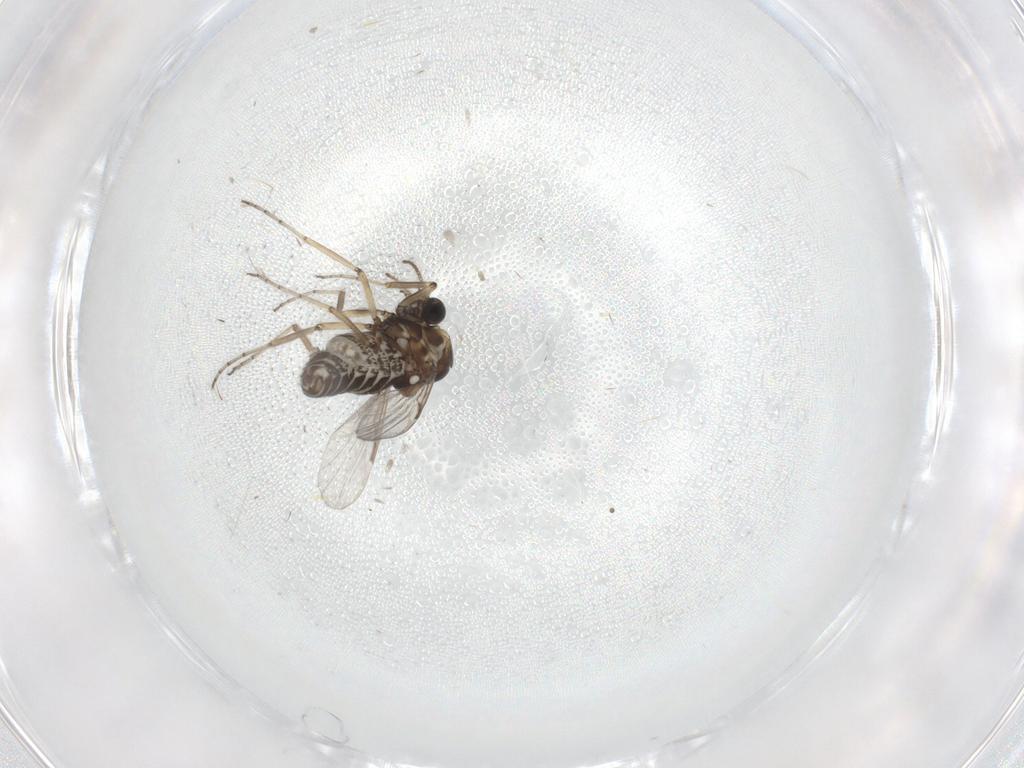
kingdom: Animalia
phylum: Arthropoda
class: Insecta
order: Diptera
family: Ceratopogonidae
